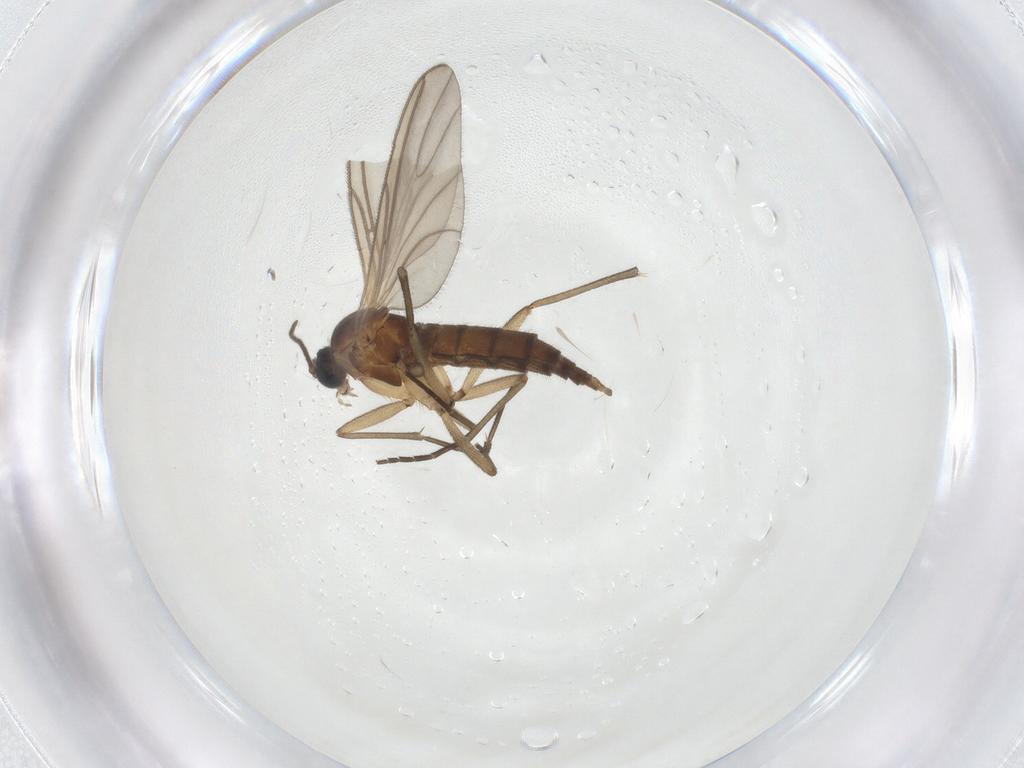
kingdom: Animalia
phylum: Arthropoda
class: Insecta
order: Diptera
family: Sciaridae
